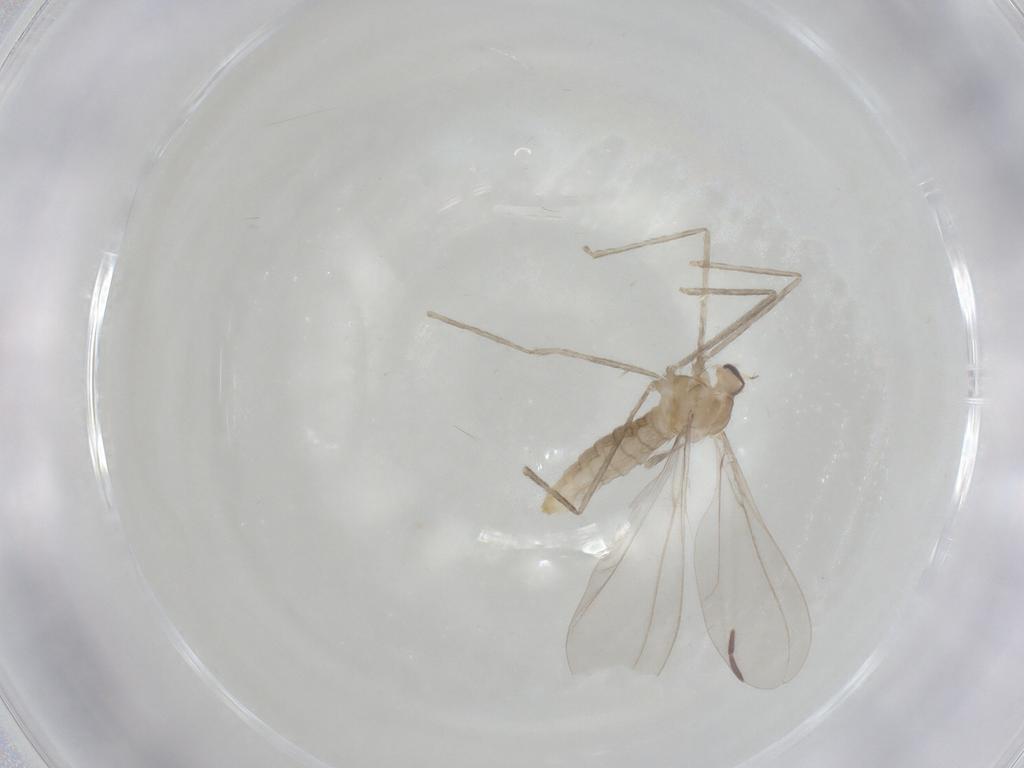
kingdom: Animalia
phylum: Arthropoda
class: Insecta
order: Diptera
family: Cecidomyiidae
